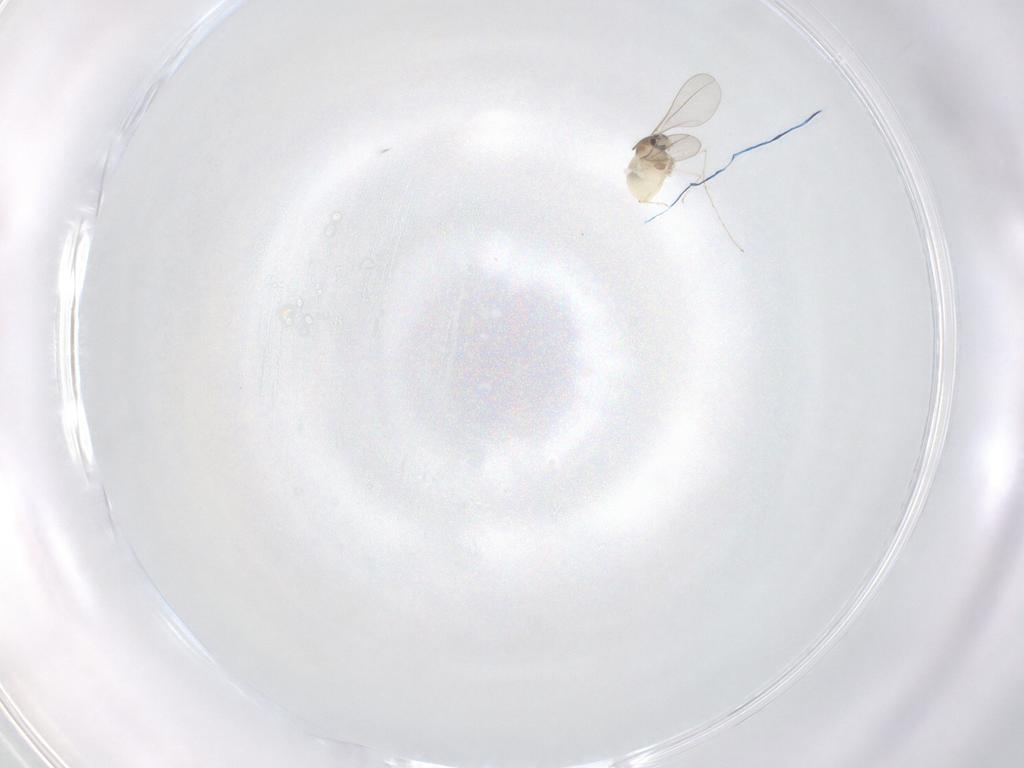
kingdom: Animalia
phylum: Arthropoda
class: Insecta
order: Diptera
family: Cecidomyiidae
